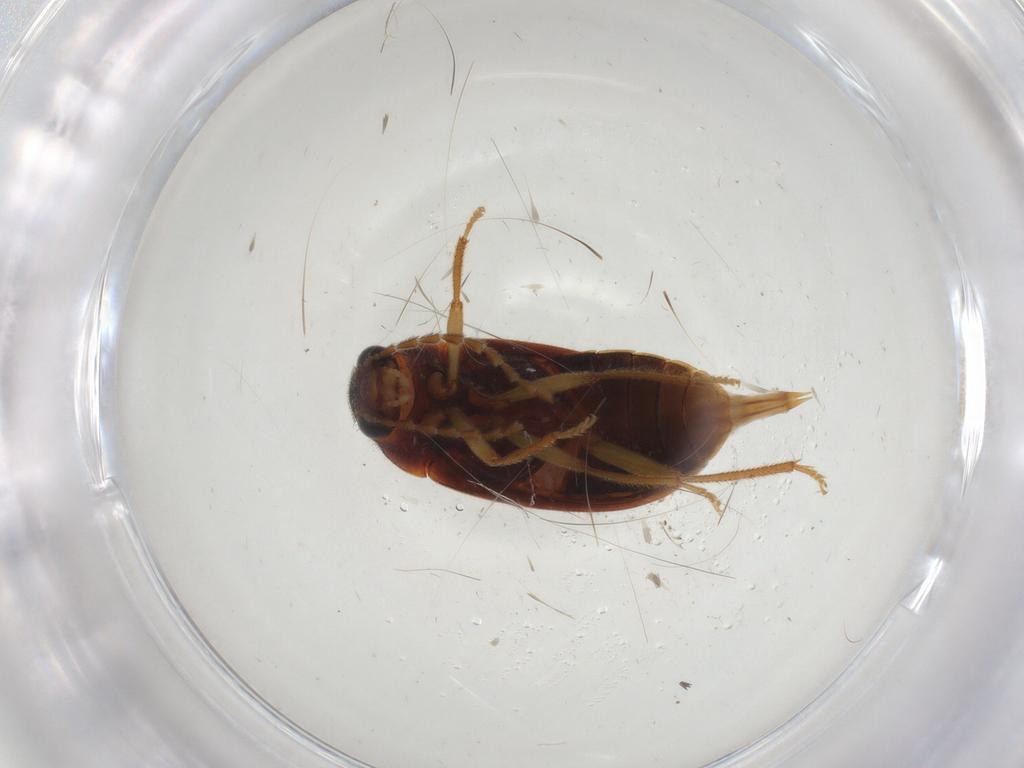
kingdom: Animalia
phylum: Arthropoda
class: Insecta
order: Coleoptera
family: Ptilodactylidae
